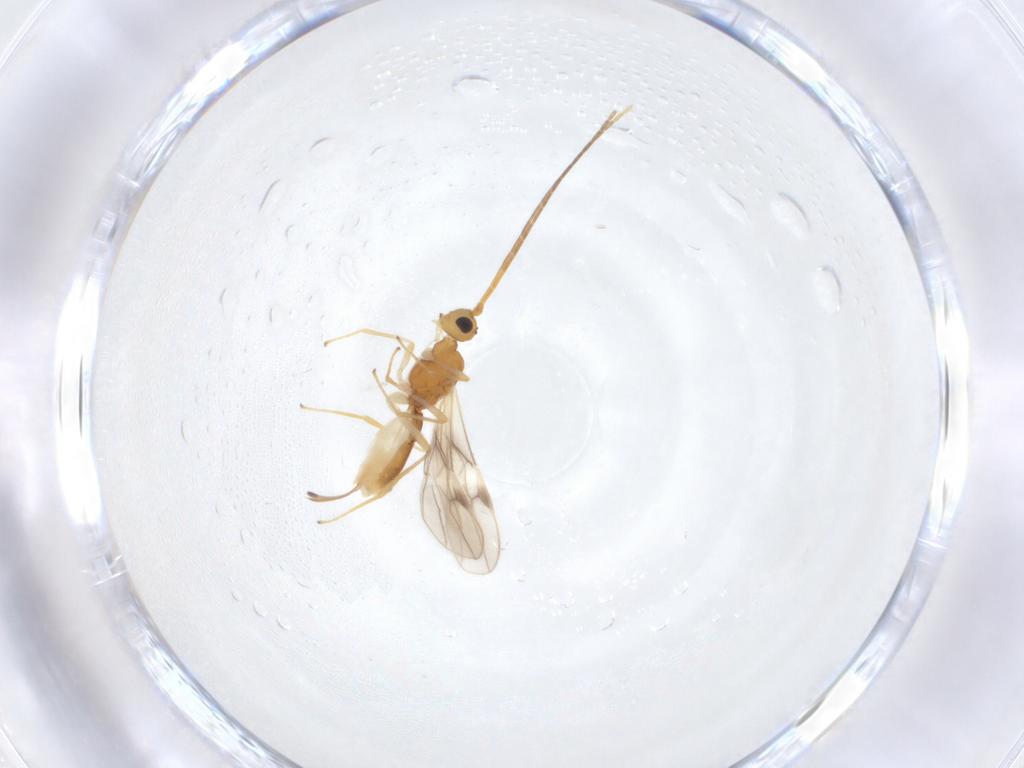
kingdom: Animalia
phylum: Arthropoda
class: Insecta
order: Hymenoptera
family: Braconidae
